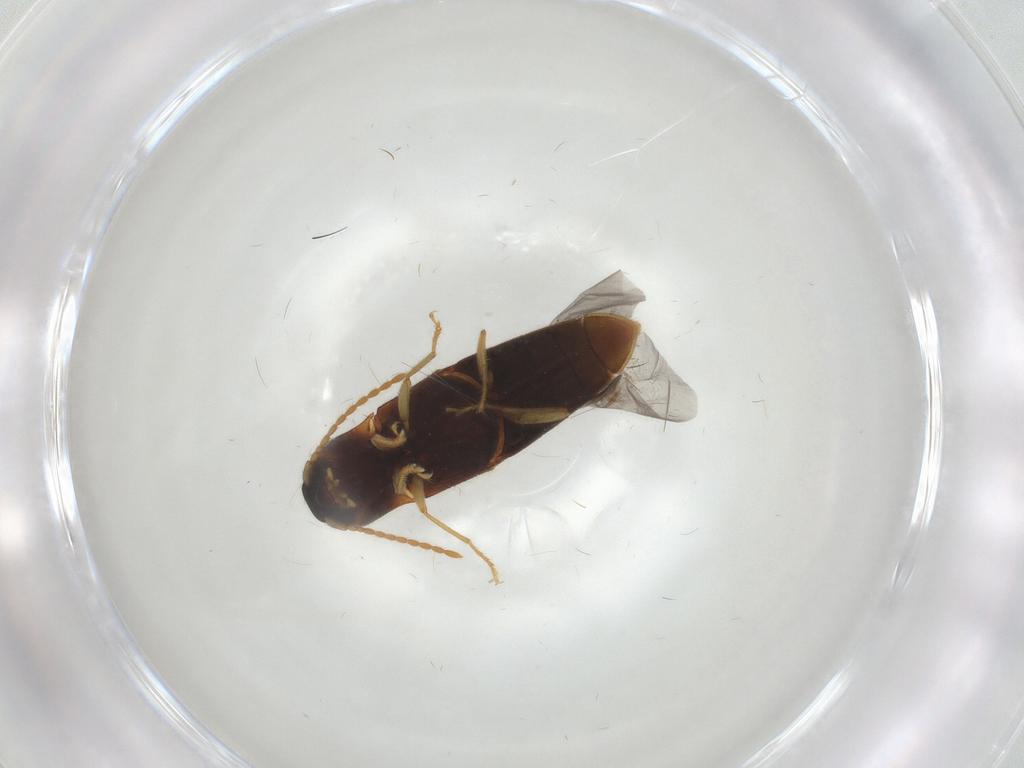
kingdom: Animalia
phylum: Arthropoda
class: Insecta
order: Coleoptera
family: Elateridae
